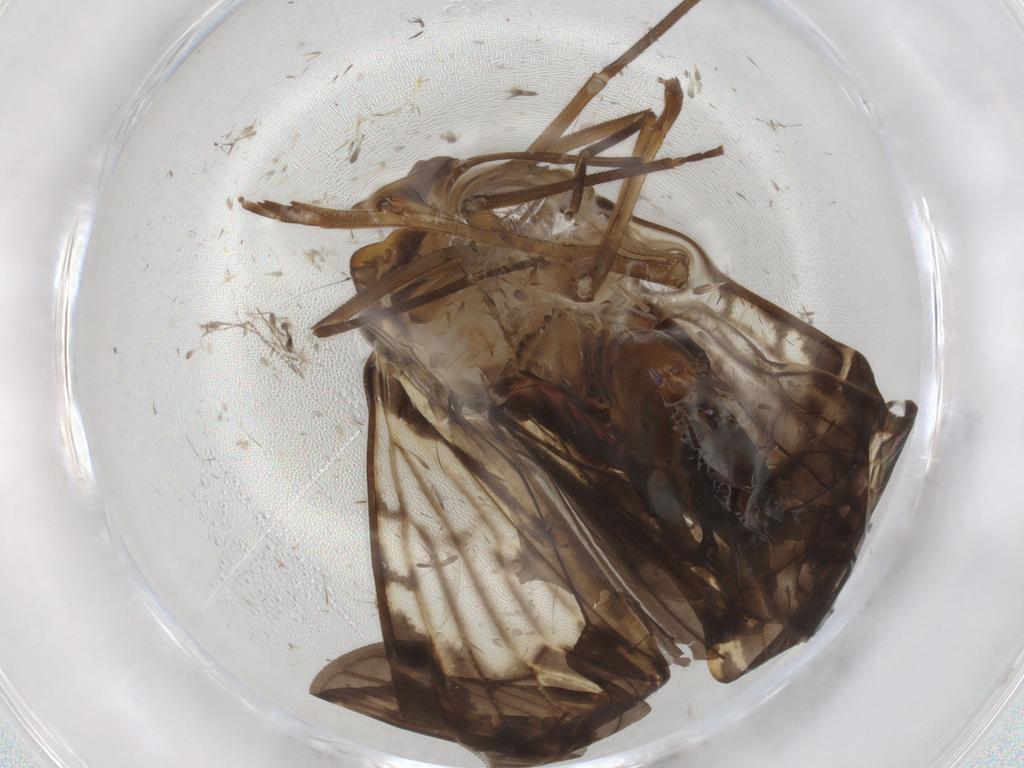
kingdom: Animalia
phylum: Arthropoda
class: Insecta
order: Hemiptera
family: Cixiidae
